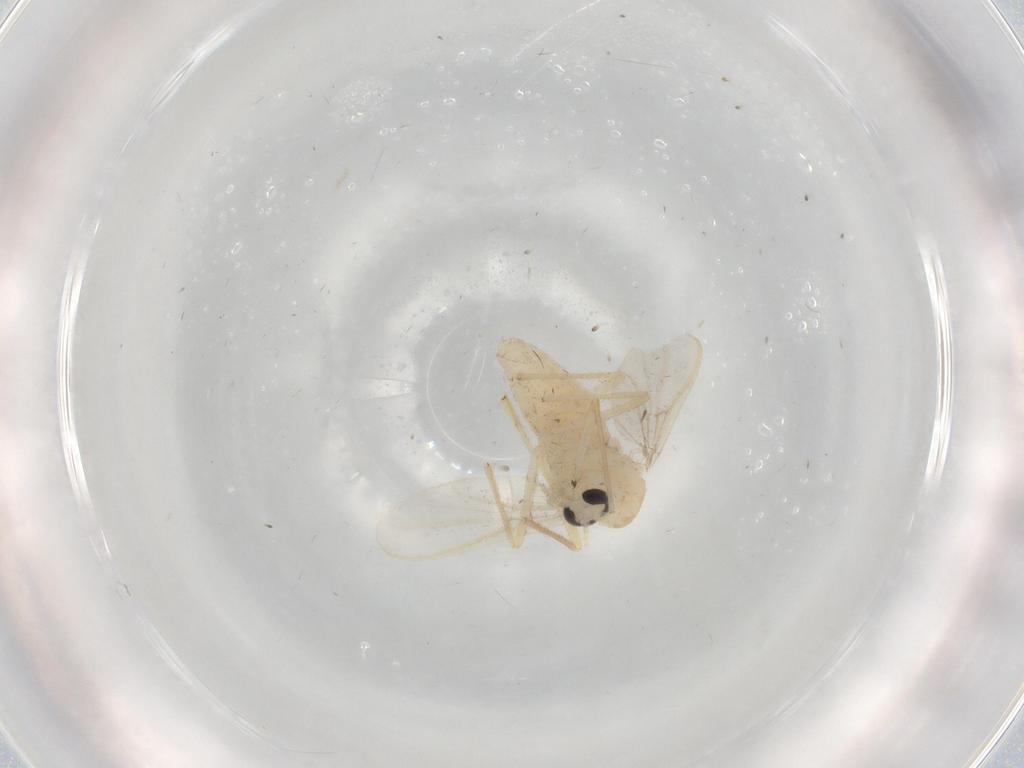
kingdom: Animalia
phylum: Arthropoda
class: Insecta
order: Diptera
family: Chironomidae
